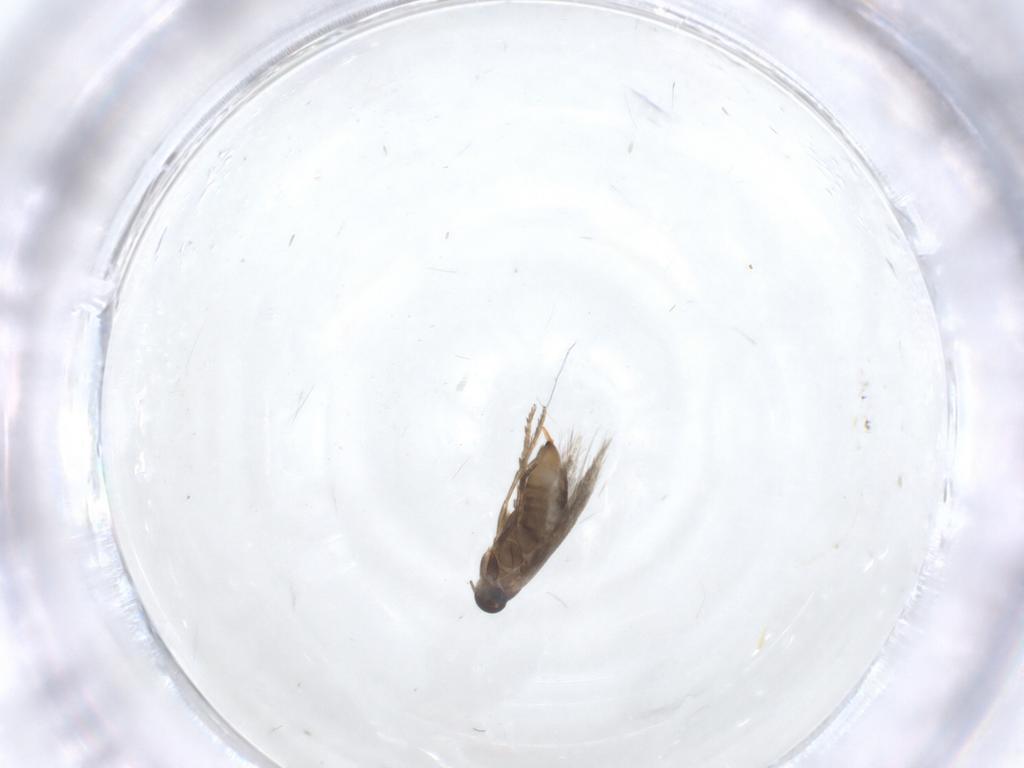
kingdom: Animalia
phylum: Arthropoda
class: Insecta
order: Lepidoptera
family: Heliozelidae
